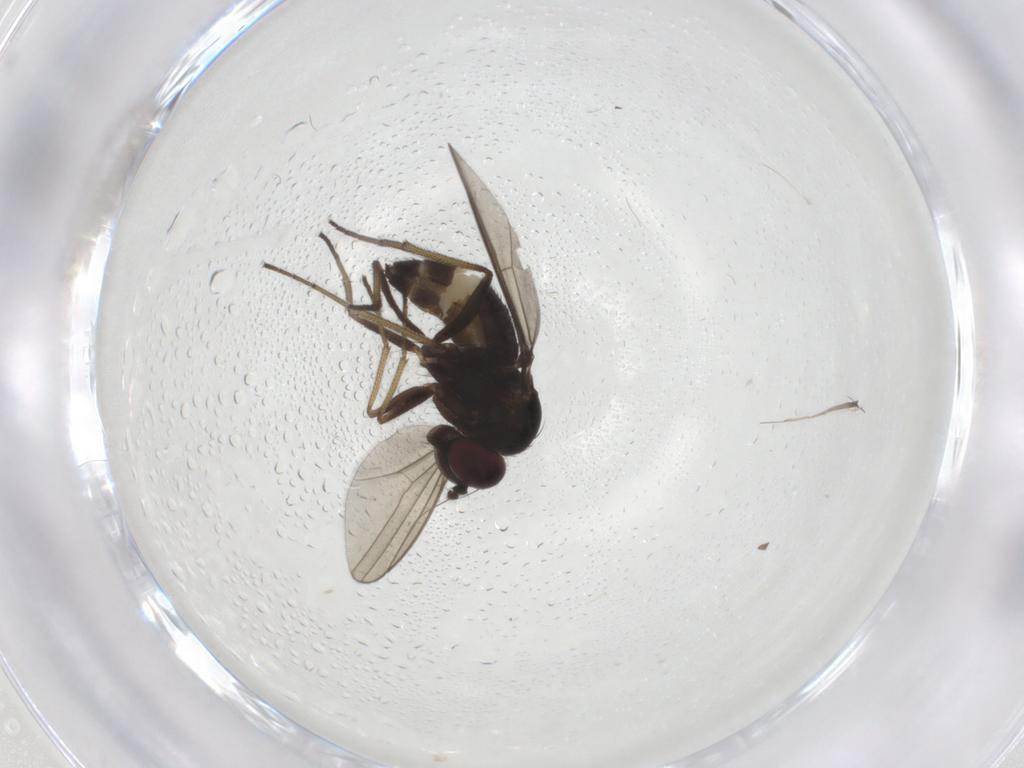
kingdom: Animalia
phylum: Arthropoda
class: Insecta
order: Diptera
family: Dolichopodidae
